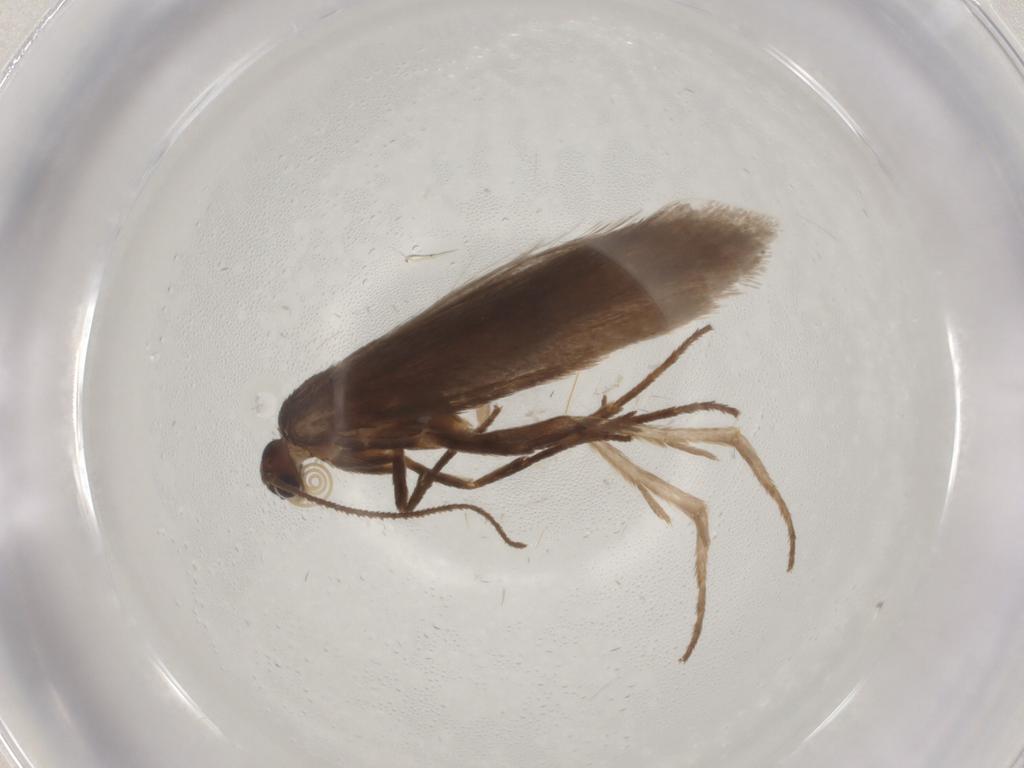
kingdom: Animalia
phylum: Arthropoda
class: Insecta
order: Lepidoptera
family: Limacodidae
